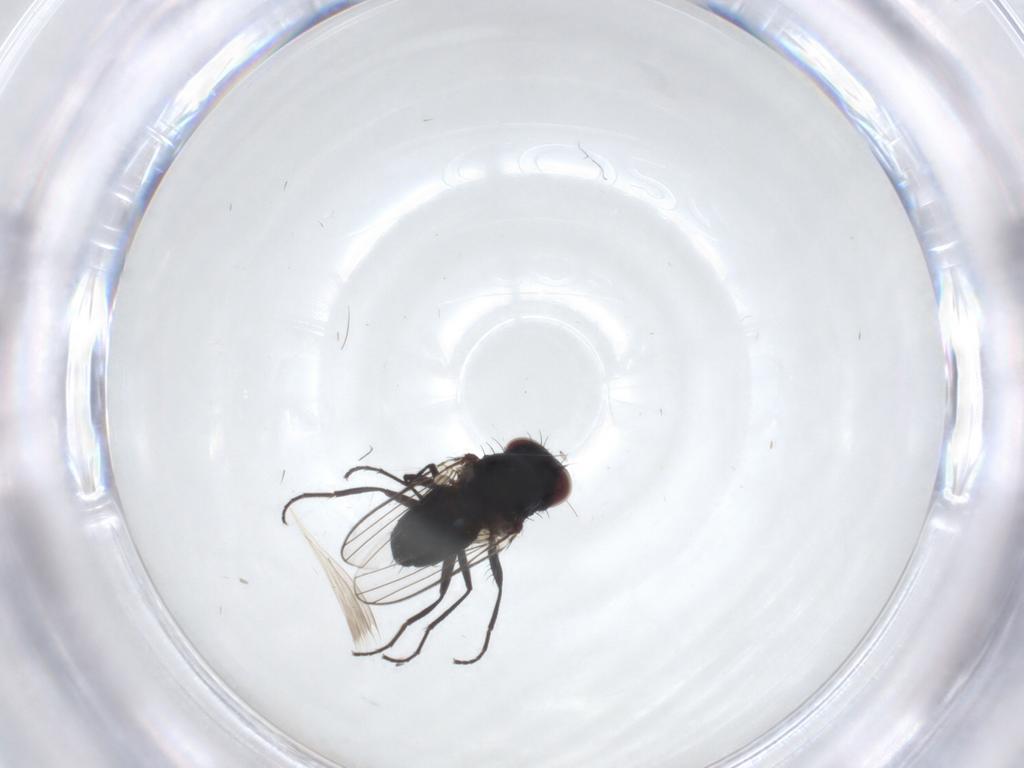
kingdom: Animalia
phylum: Arthropoda
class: Insecta
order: Diptera
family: Carnidae
